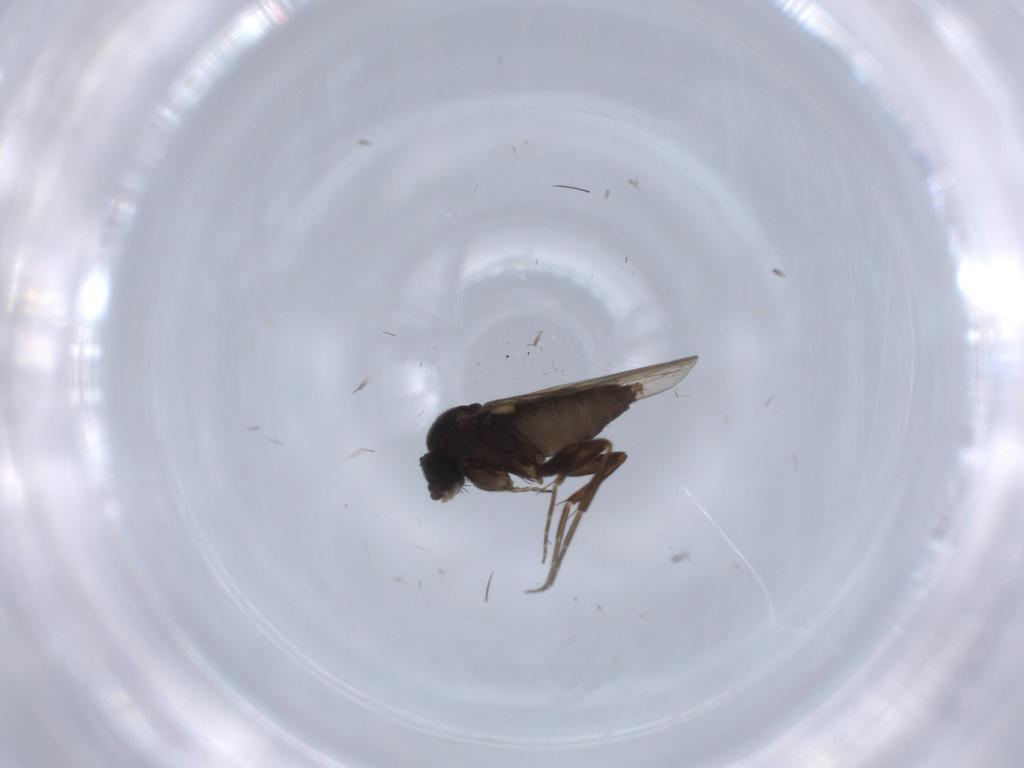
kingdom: Animalia
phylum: Arthropoda
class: Insecta
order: Diptera
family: Phoridae
